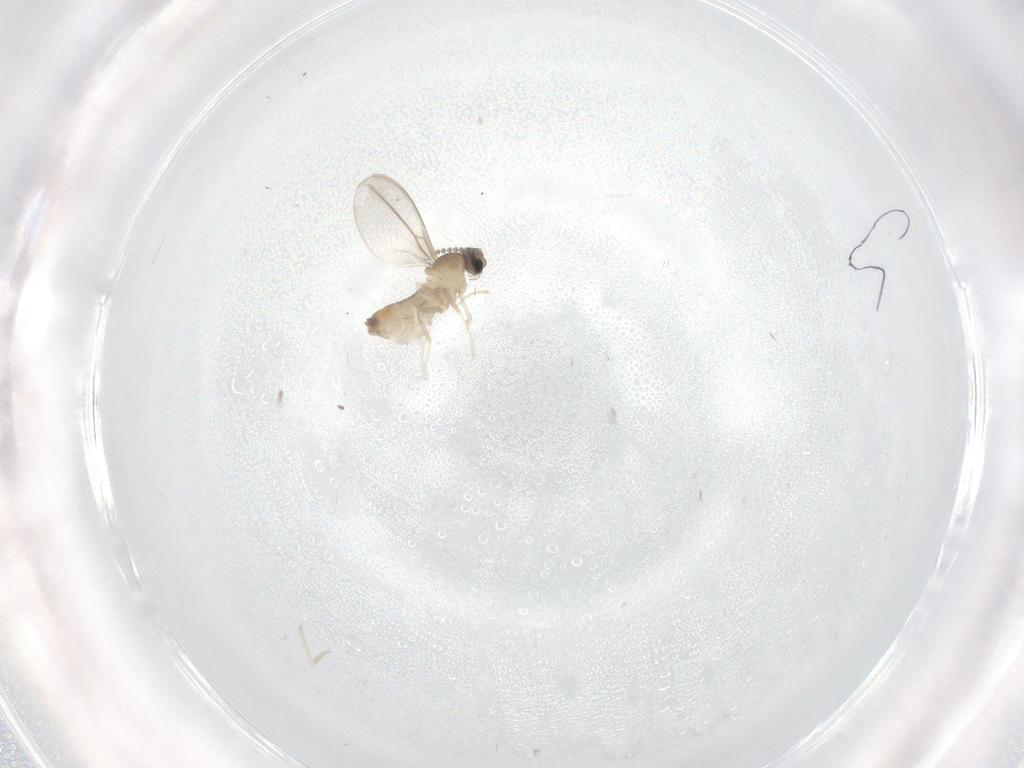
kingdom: Animalia
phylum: Arthropoda
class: Insecta
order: Diptera
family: Cecidomyiidae
